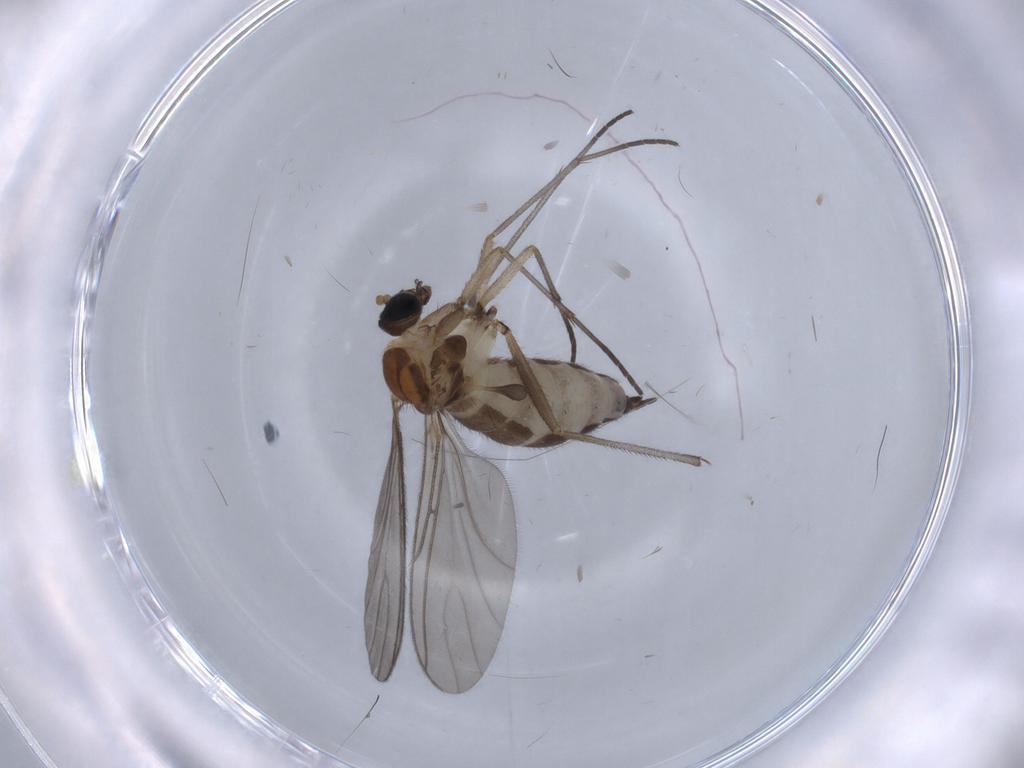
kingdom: Animalia
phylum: Arthropoda
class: Insecta
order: Diptera
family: Sciaridae
